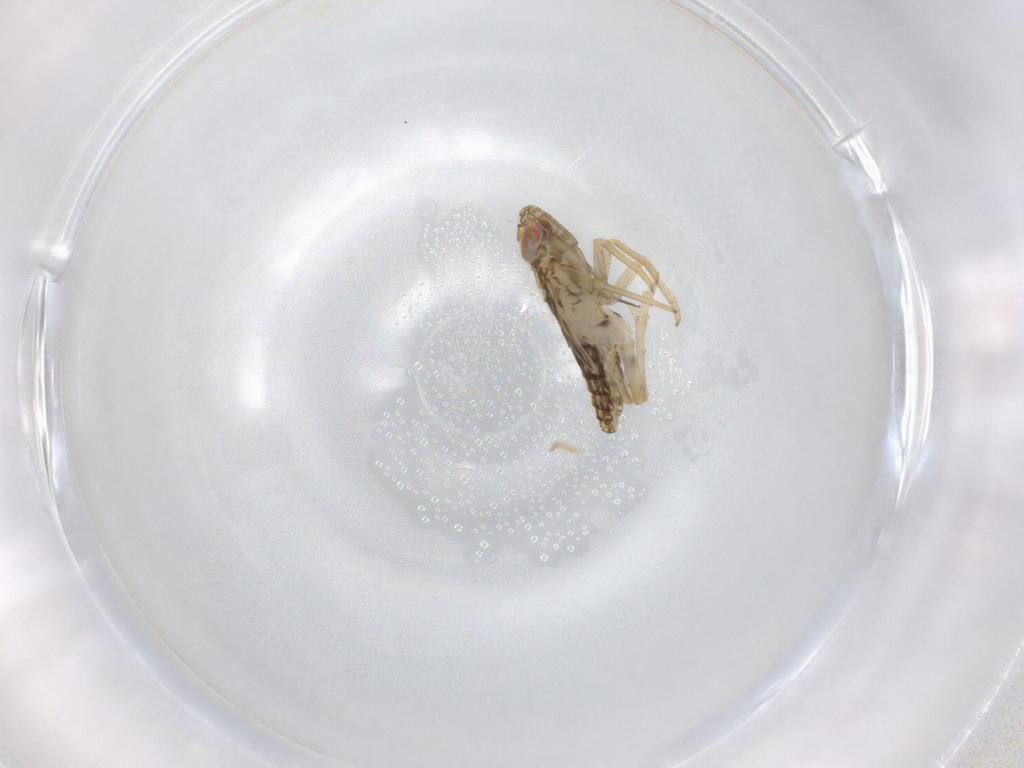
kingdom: Animalia
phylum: Arthropoda
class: Insecta
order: Hemiptera
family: Delphacidae
